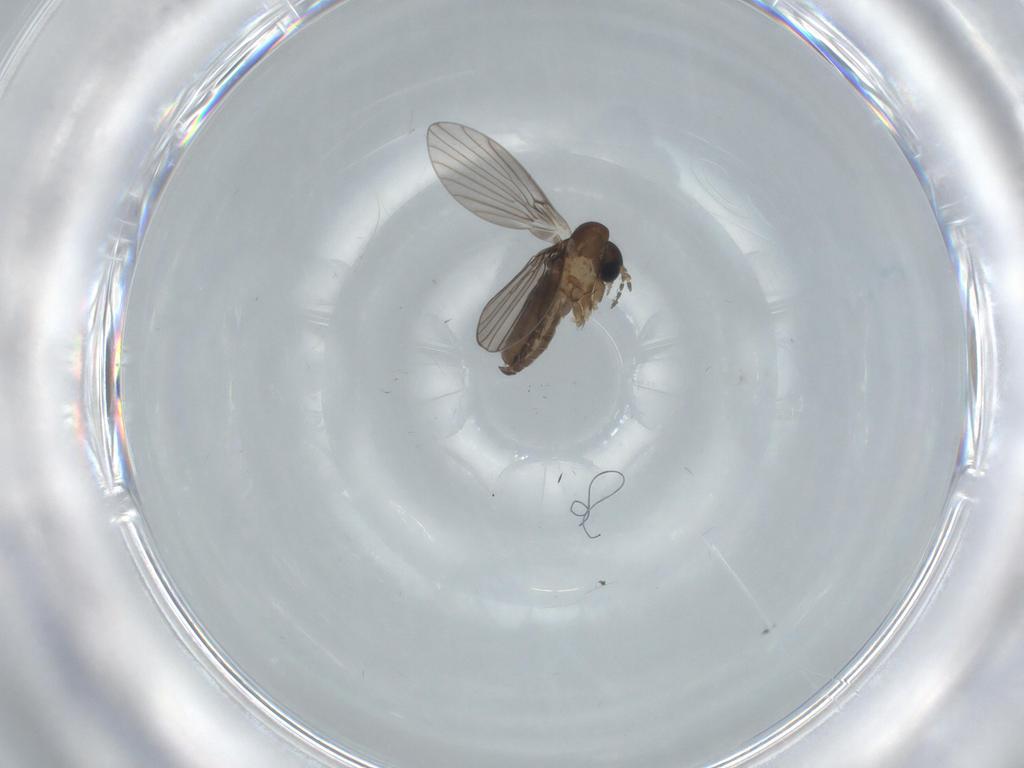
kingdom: Animalia
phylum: Arthropoda
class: Insecta
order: Diptera
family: Psychodidae
